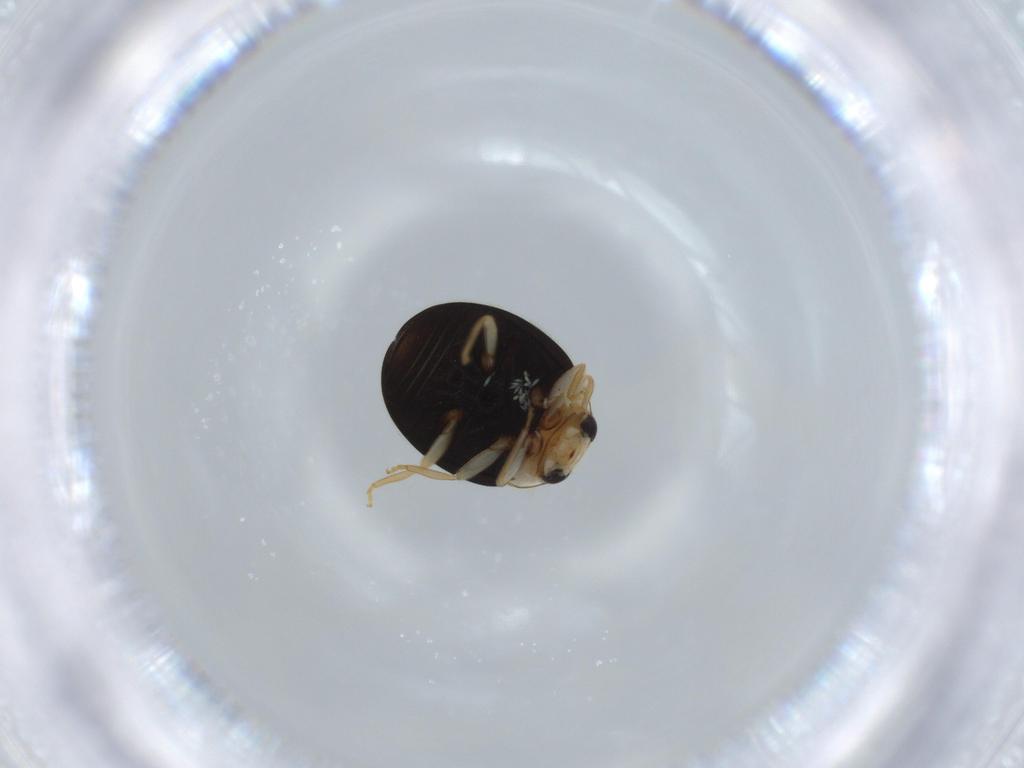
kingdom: Animalia
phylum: Arthropoda
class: Insecta
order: Coleoptera
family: Coccinellidae
